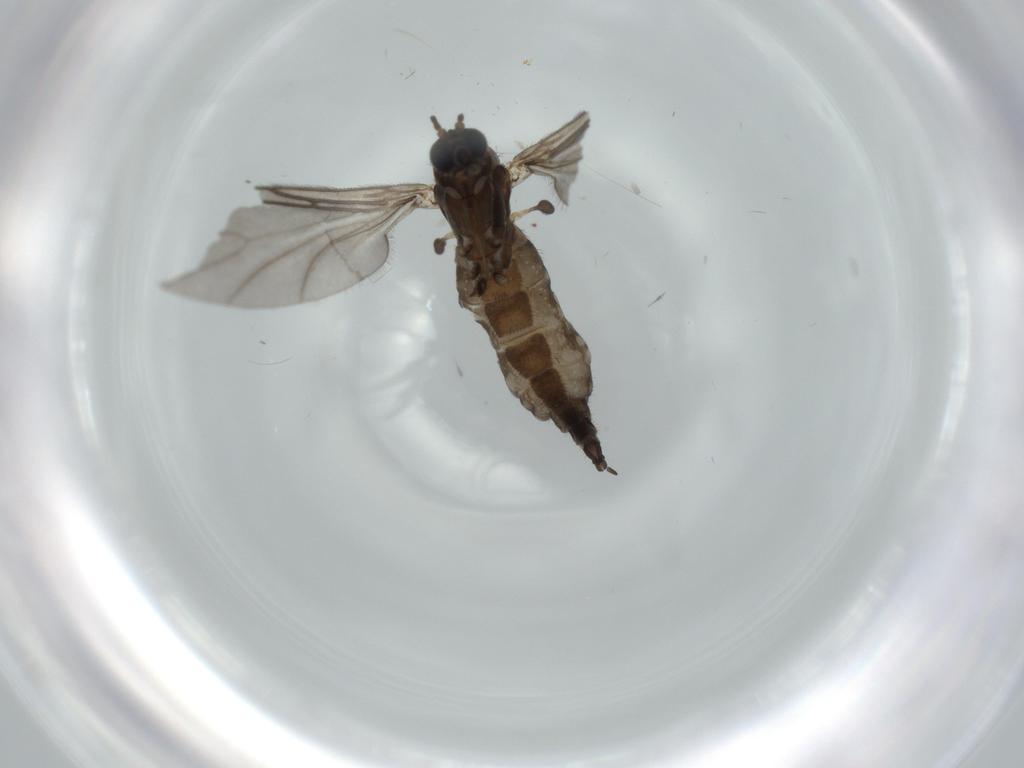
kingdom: Animalia
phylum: Arthropoda
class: Insecta
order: Diptera
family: Sciaridae
